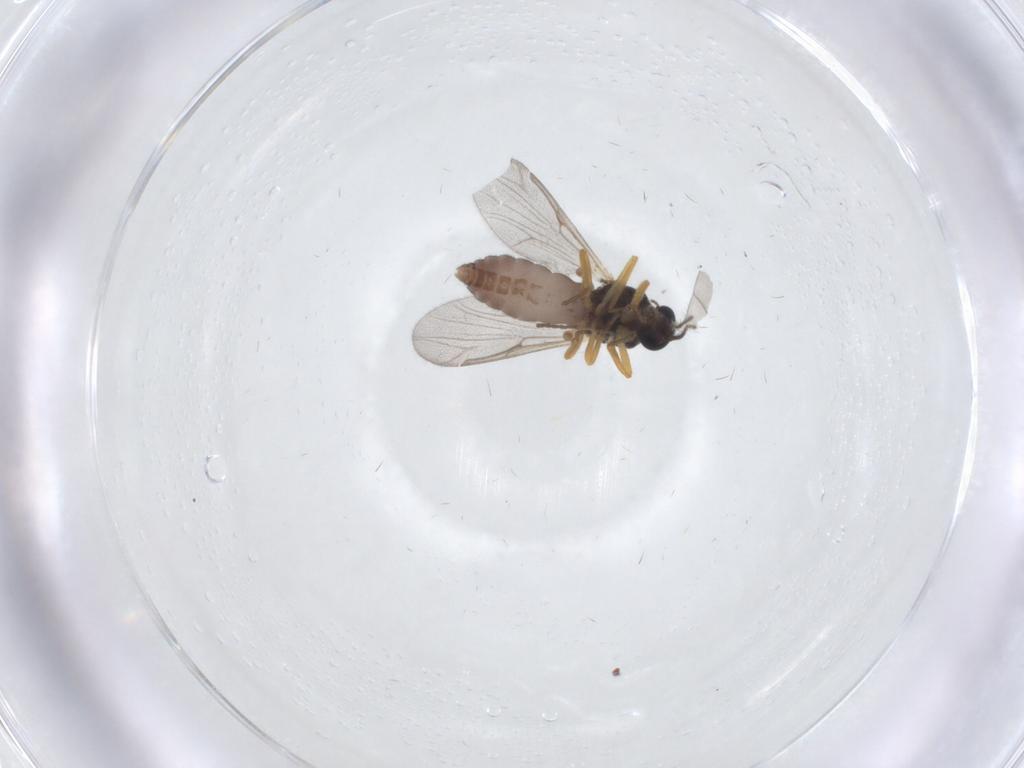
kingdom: Animalia
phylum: Arthropoda
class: Insecta
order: Diptera
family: Ceratopogonidae
